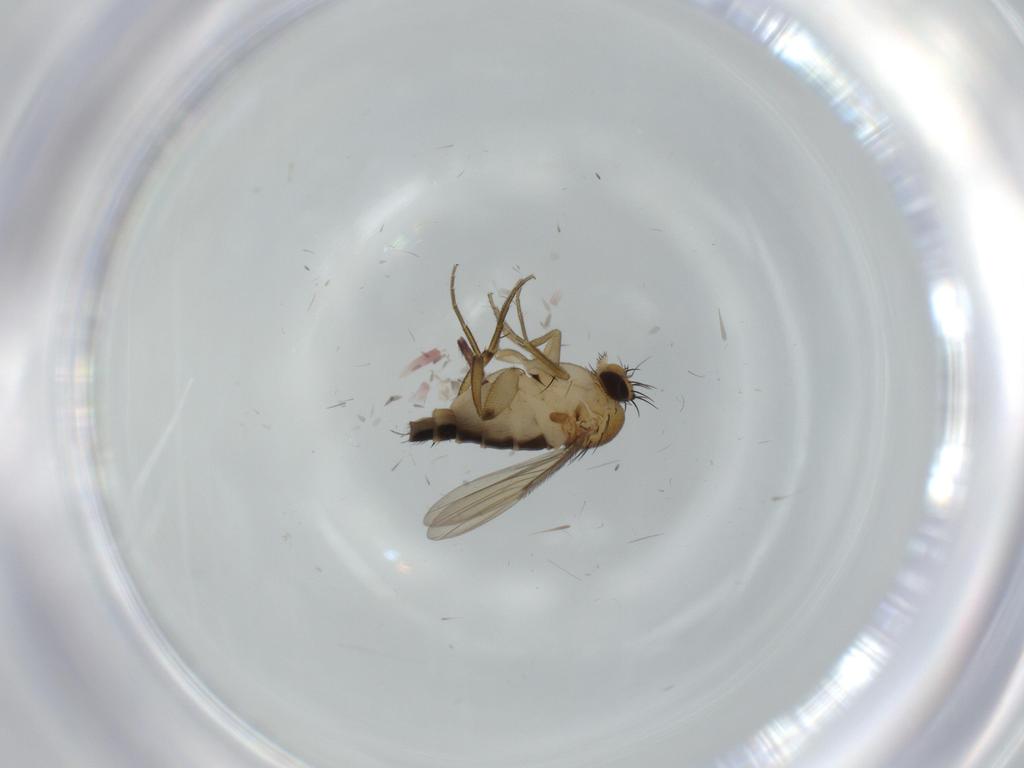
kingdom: Animalia
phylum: Arthropoda
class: Insecta
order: Diptera
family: Lauxaniidae
